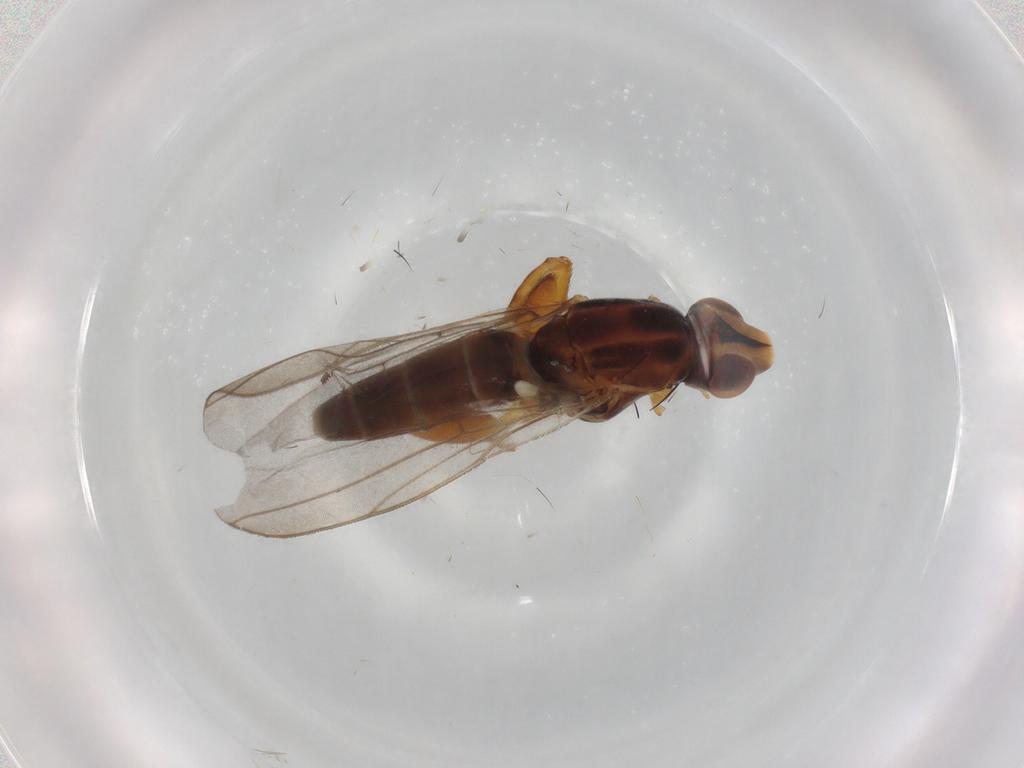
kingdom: Animalia
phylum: Arthropoda
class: Insecta
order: Diptera
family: Chloropidae
